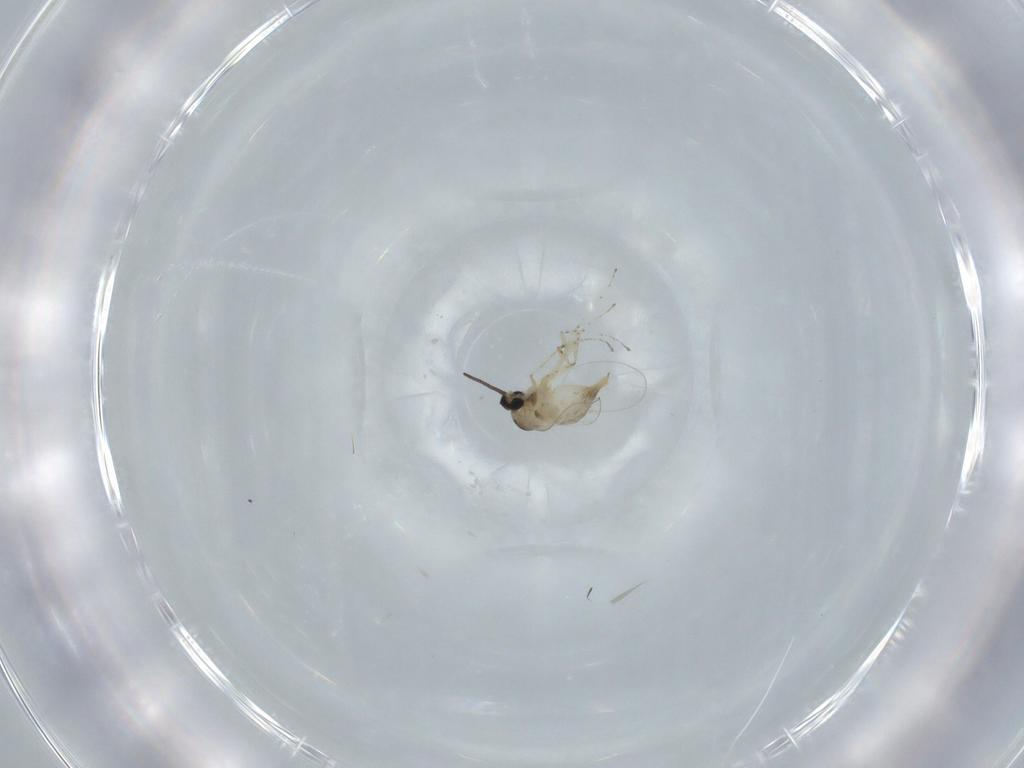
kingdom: Animalia
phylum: Arthropoda
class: Insecta
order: Diptera
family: Cecidomyiidae
